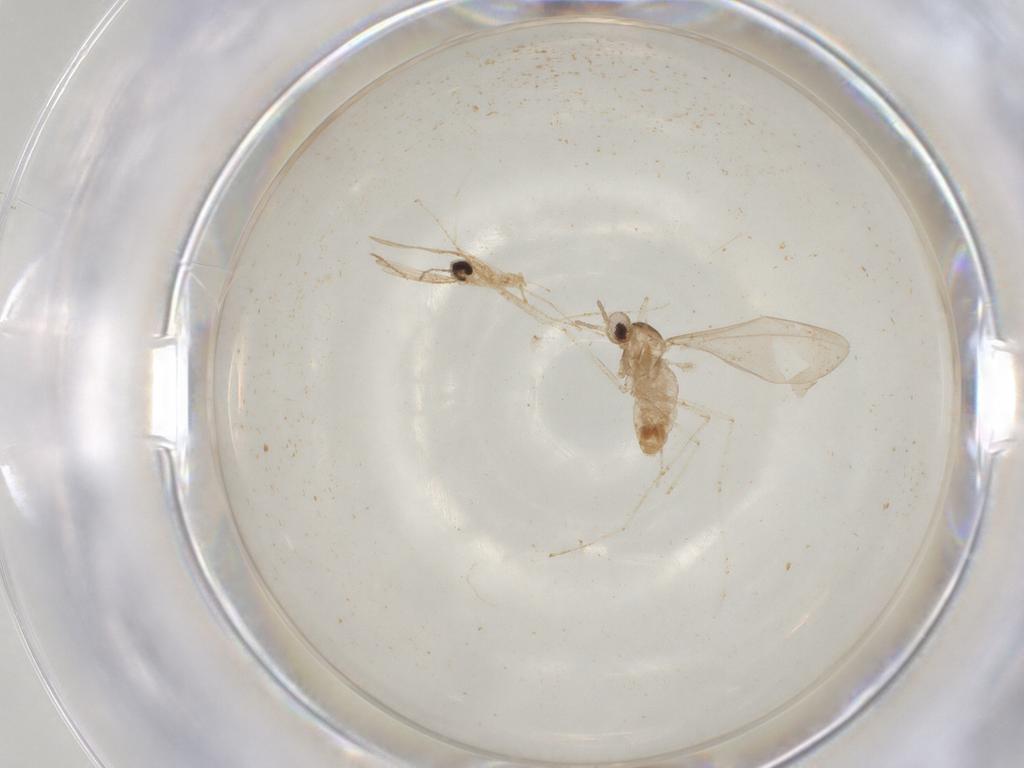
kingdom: Animalia
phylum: Arthropoda
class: Insecta
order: Diptera
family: Cecidomyiidae
